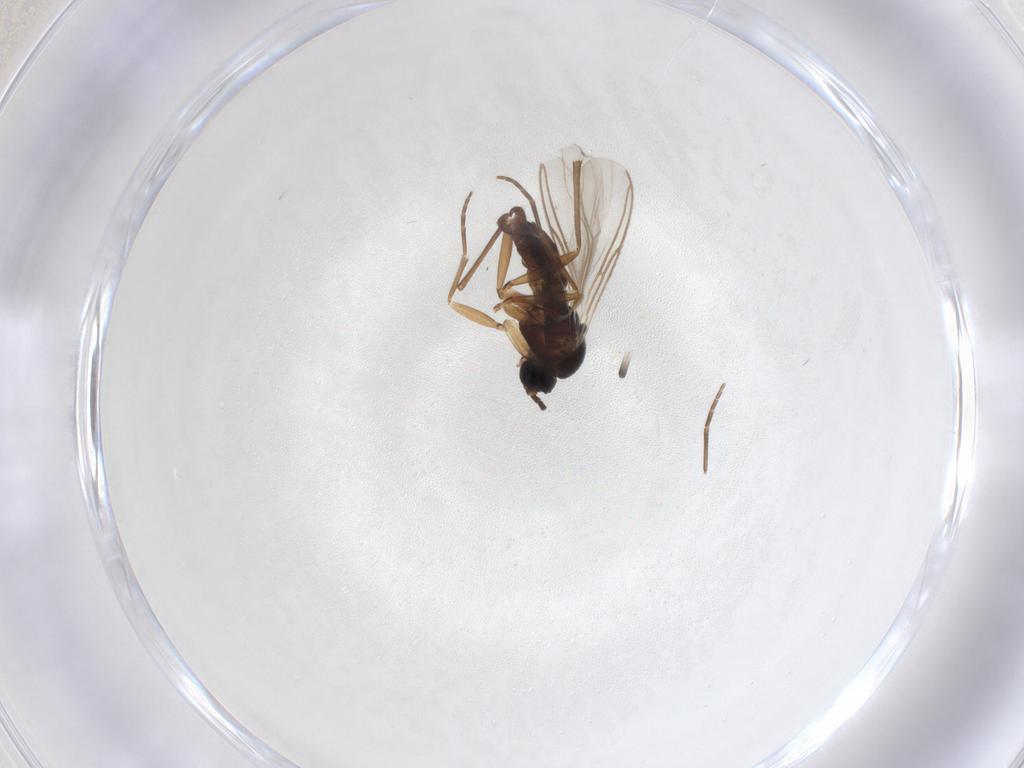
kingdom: Animalia
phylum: Arthropoda
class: Insecta
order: Diptera
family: Sciaridae
